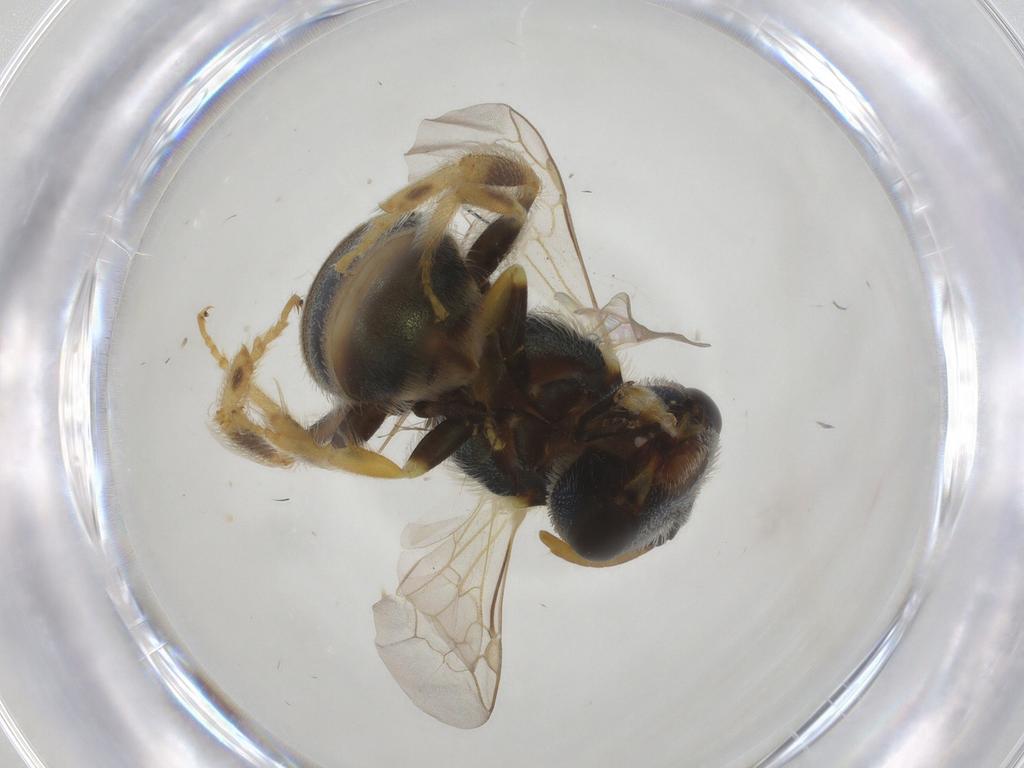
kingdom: Animalia
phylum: Arthropoda
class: Insecta
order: Hymenoptera
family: Halictidae
